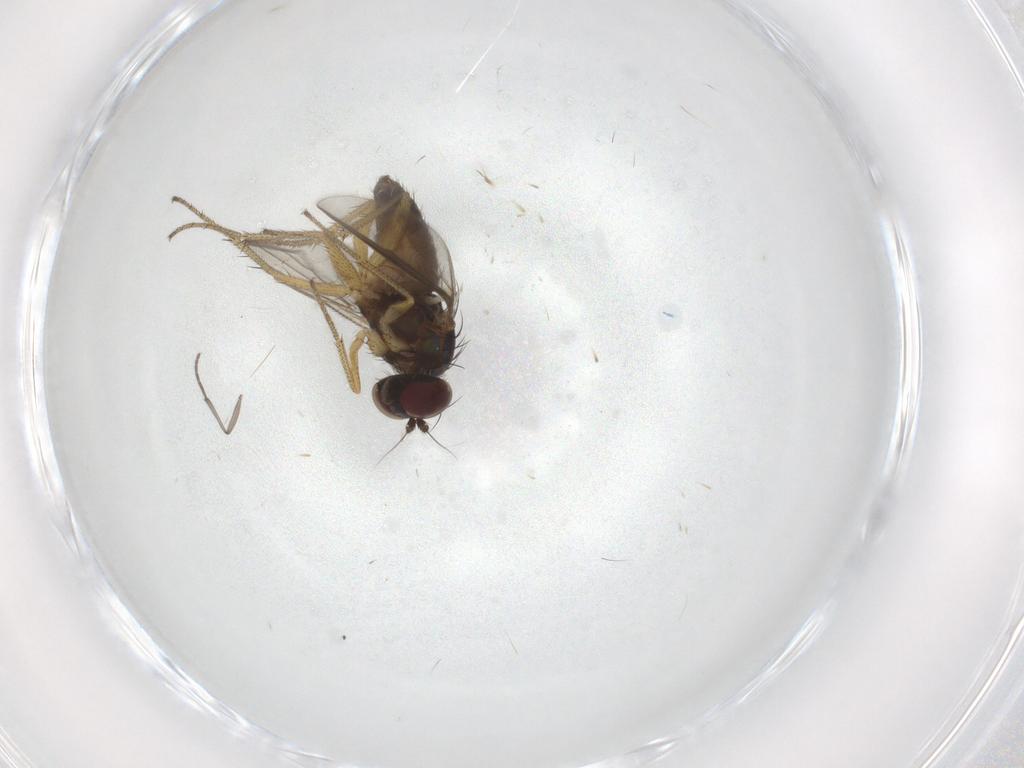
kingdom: Animalia
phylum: Arthropoda
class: Insecta
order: Diptera
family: Dolichopodidae
